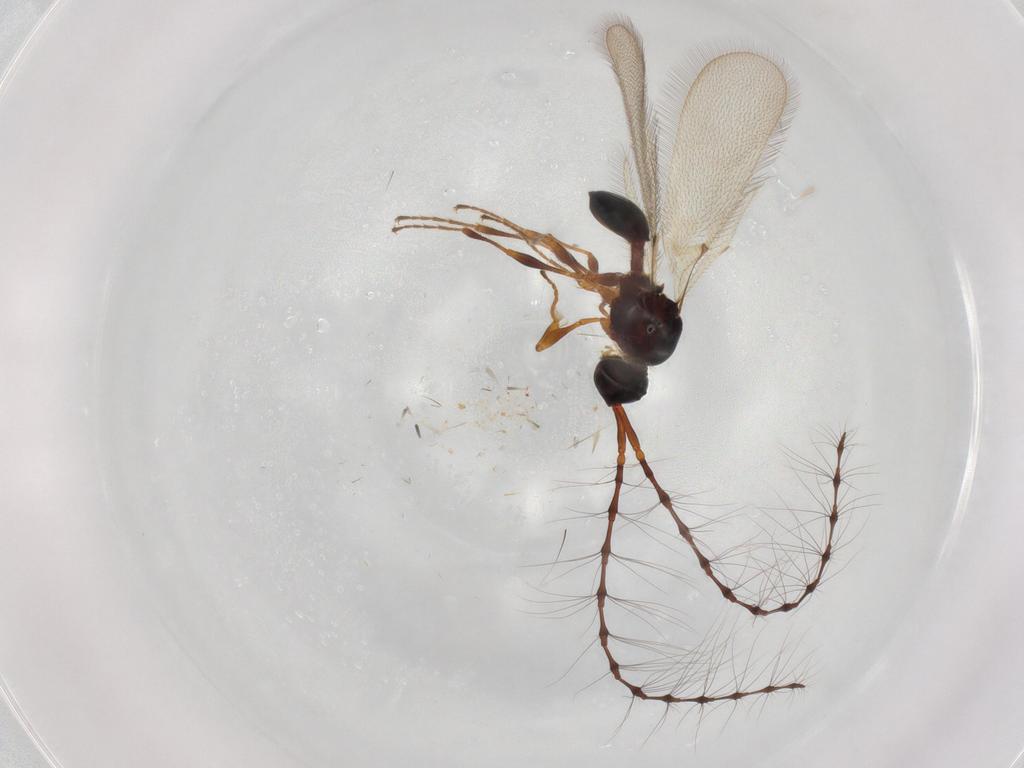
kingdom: Animalia
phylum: Arthropoda
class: Insecta
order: Hymenoptera
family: Diapriidae
